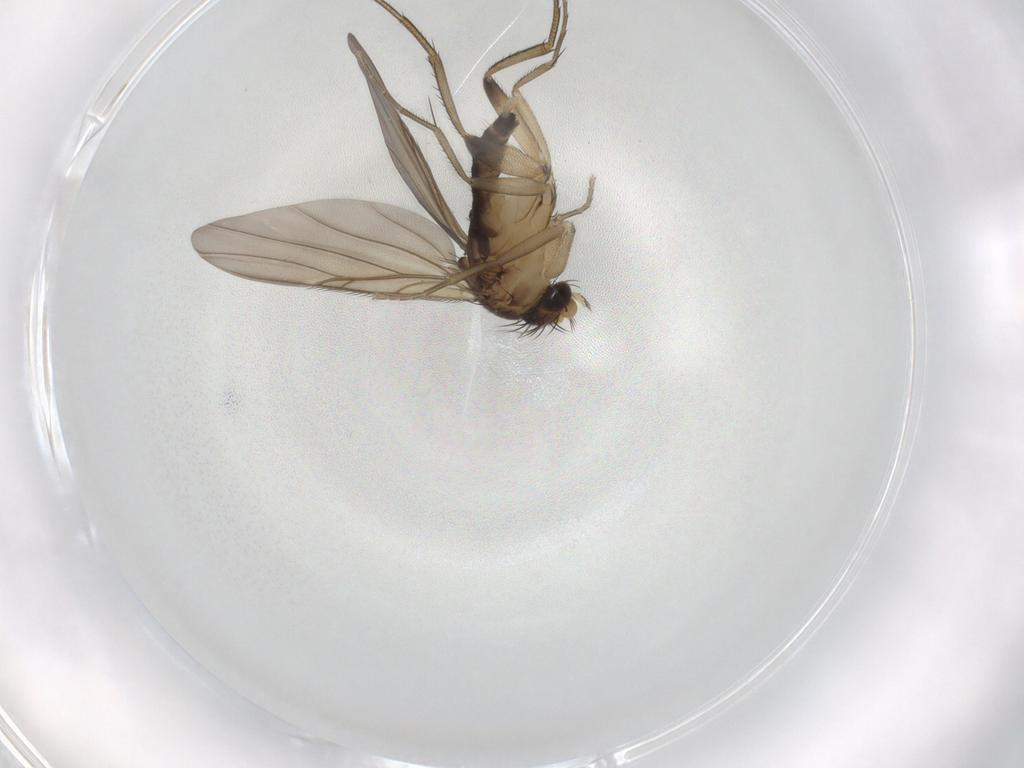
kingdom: Animalia
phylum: Arthropoda
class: Insecta
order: Diptera
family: Phoridae
